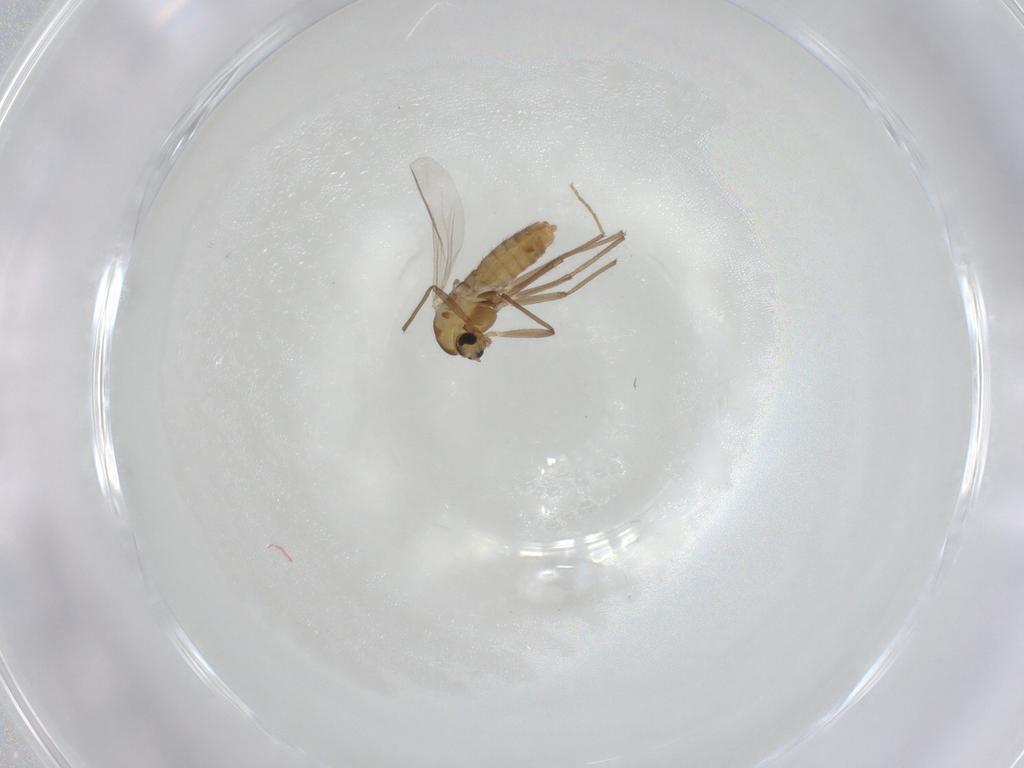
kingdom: Animalia
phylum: Arthropoda
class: Insecta
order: Diptera
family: Chironomidae
